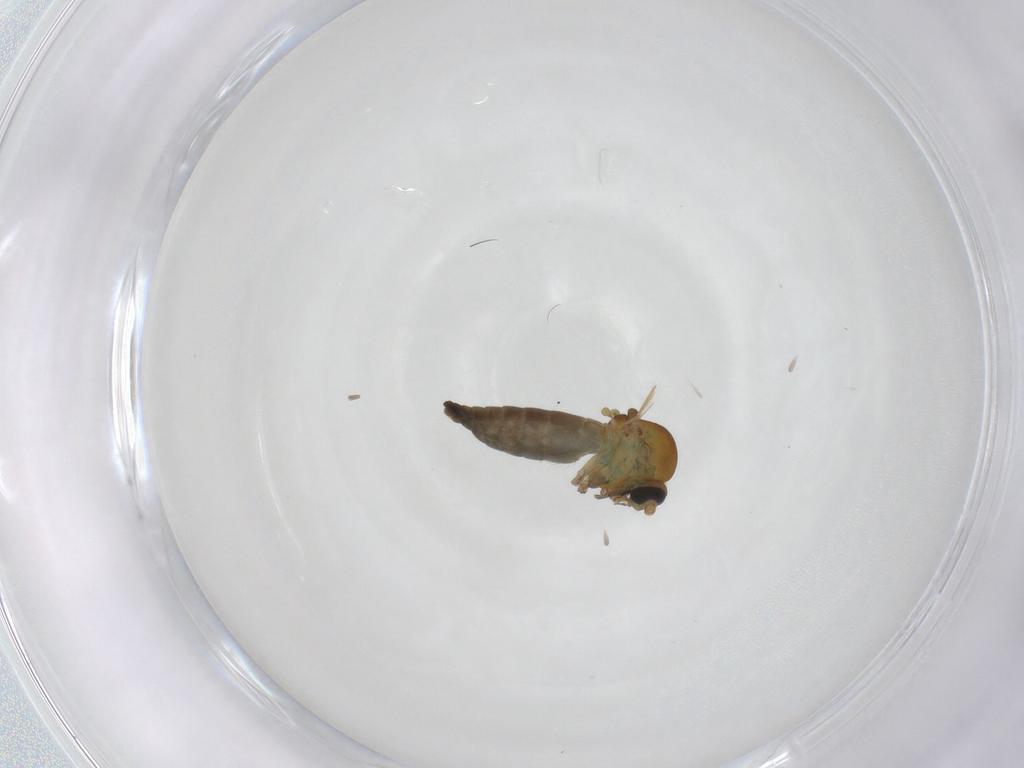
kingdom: Animalia
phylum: Arthropoda
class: Insecta
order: Diptera
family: Ceratopogonidae
